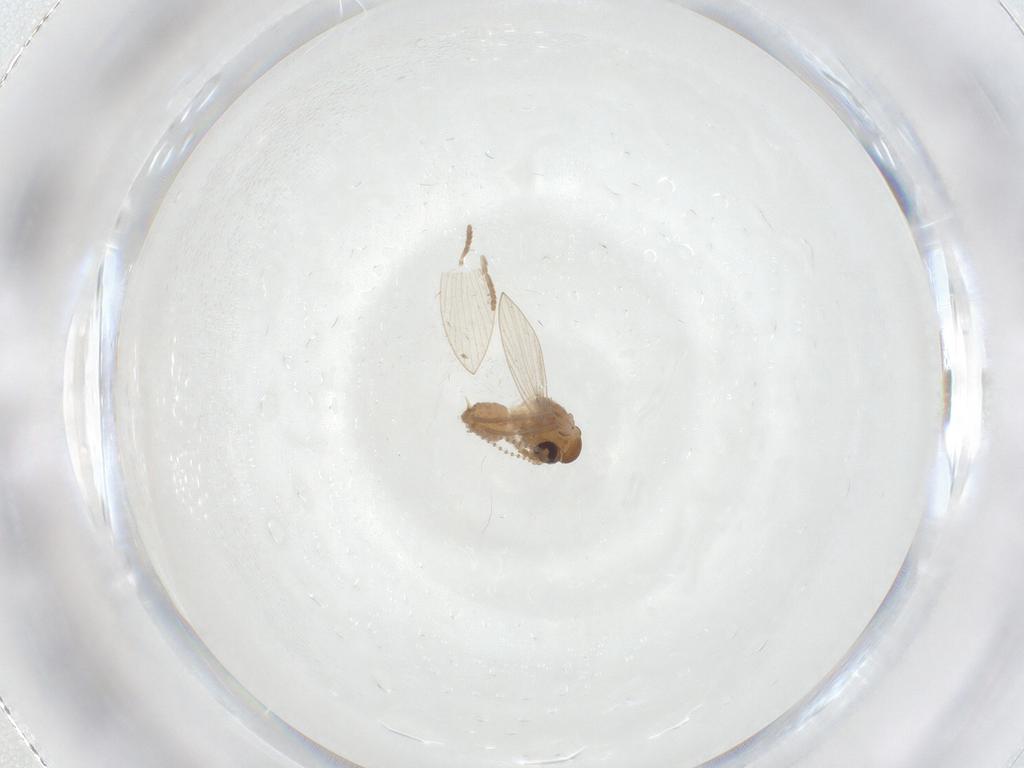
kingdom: Animalia
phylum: Arthropoda
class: Insecta
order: Diptera
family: Psychodidae
